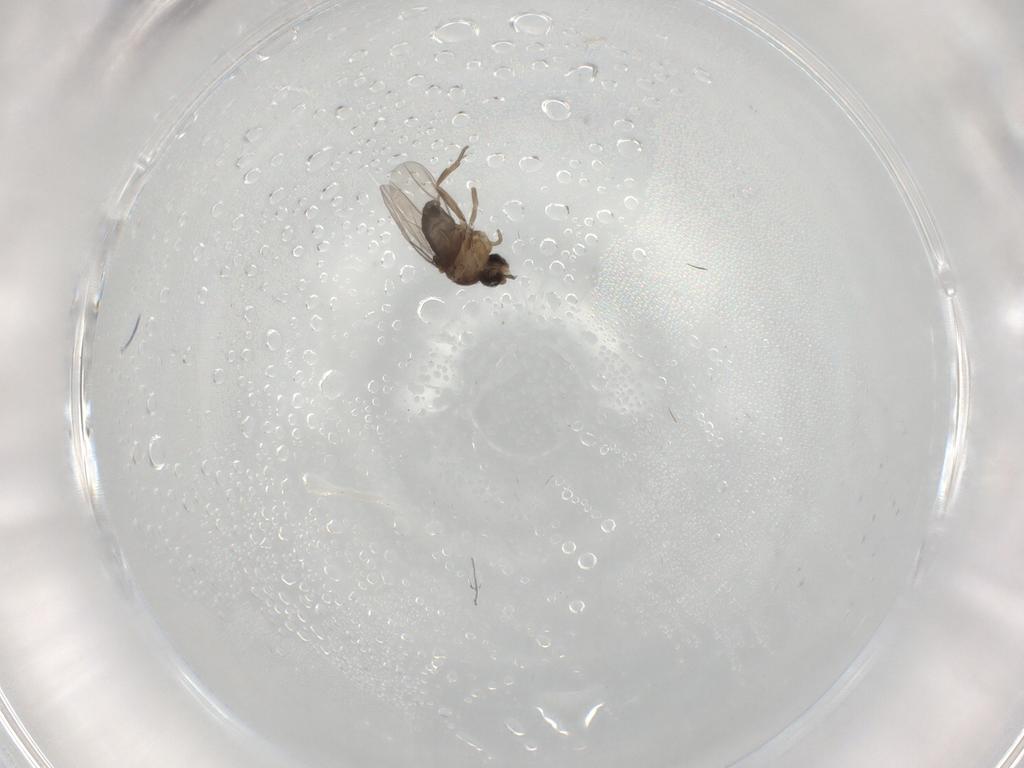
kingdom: Animalia
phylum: Arthropoda
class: Insecta
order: Diptera
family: Phoridae
